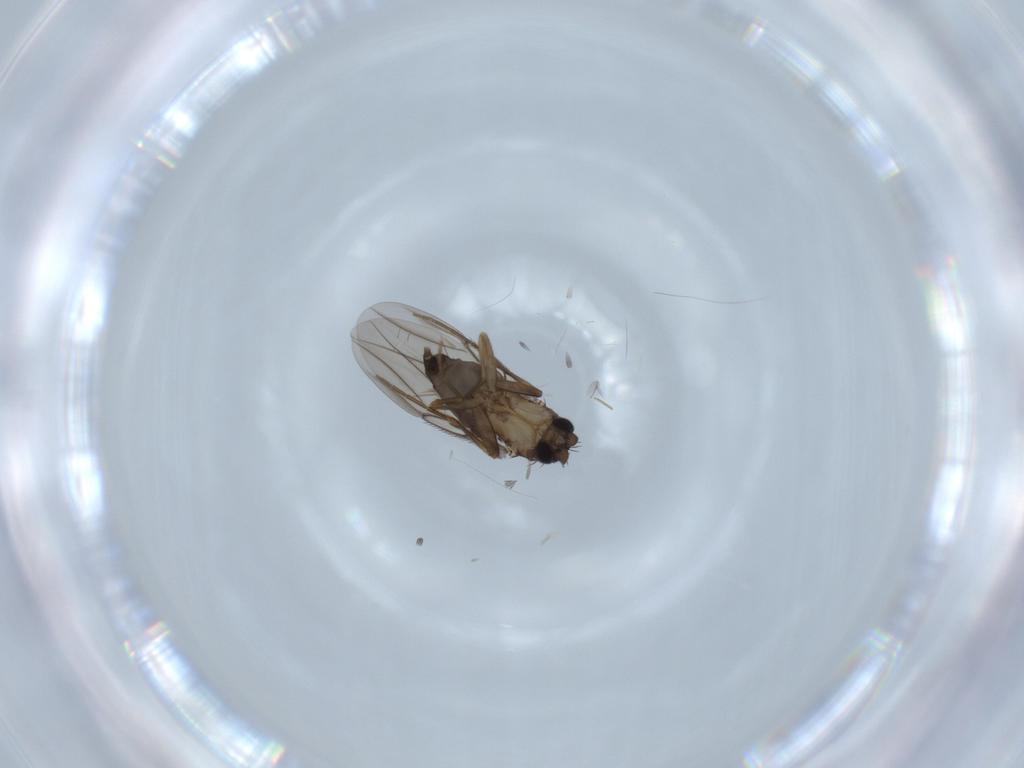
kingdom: Animalia
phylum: Arthropoda
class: Insecta
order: Diptera
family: Chironomidae
